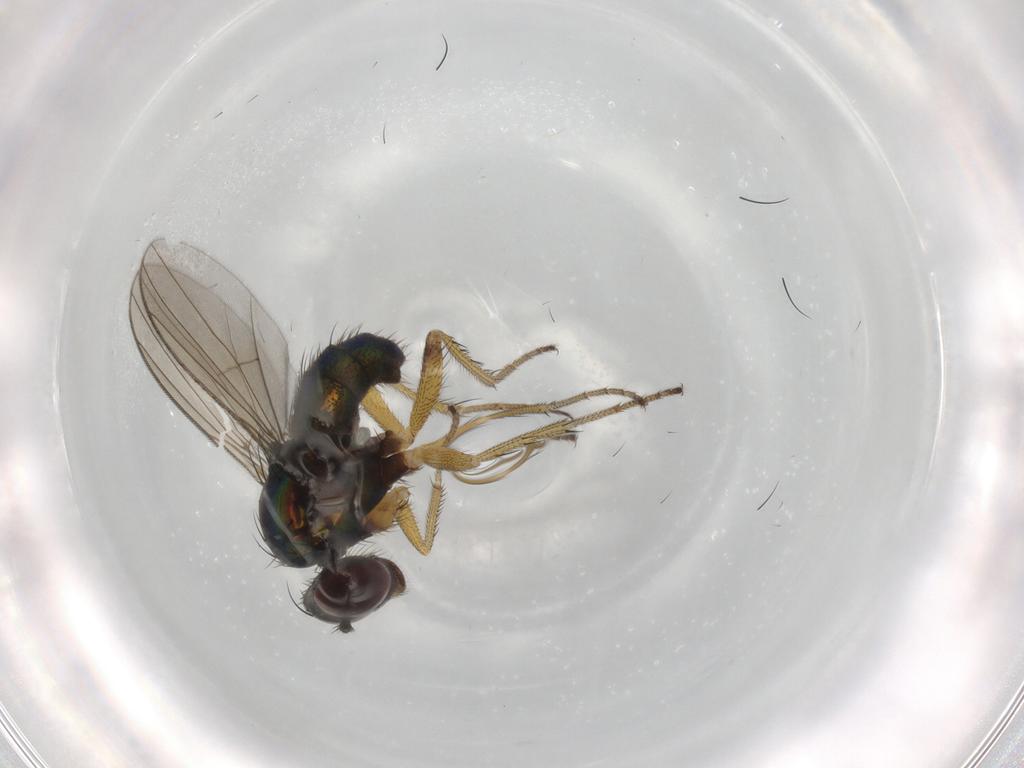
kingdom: Animalia
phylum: Arthropoda
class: Insecta
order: Diptera
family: Dolichopodidae
